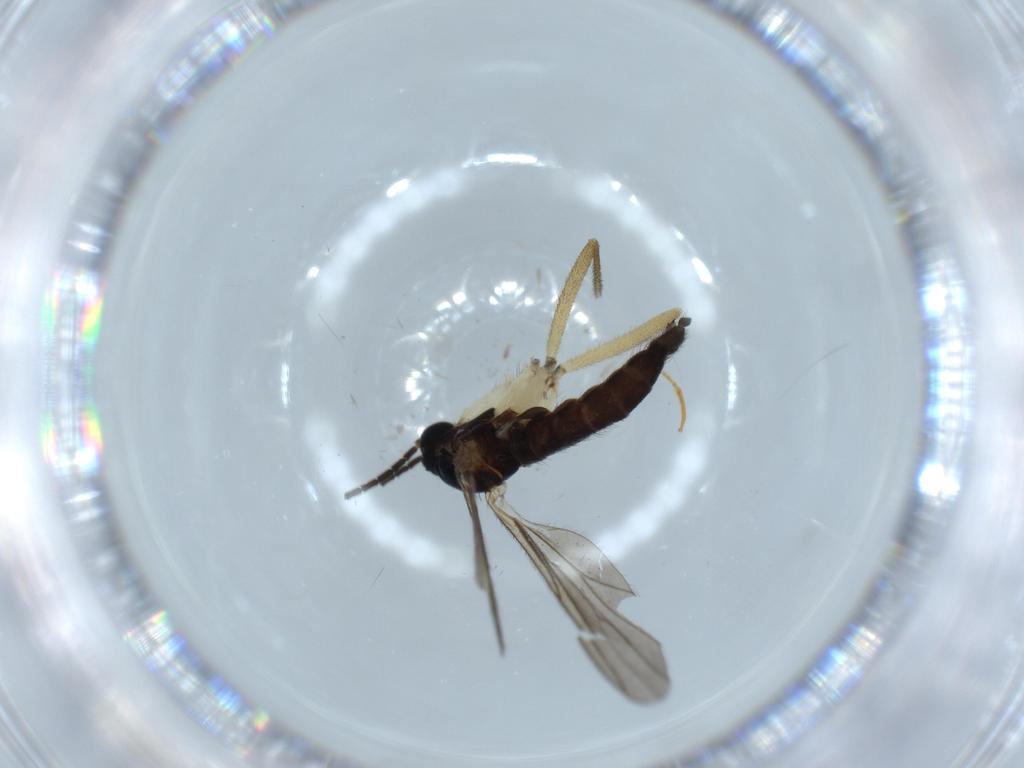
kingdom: Animalia
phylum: Arthropoda
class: Insecta
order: Diptera
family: Sciaridae
